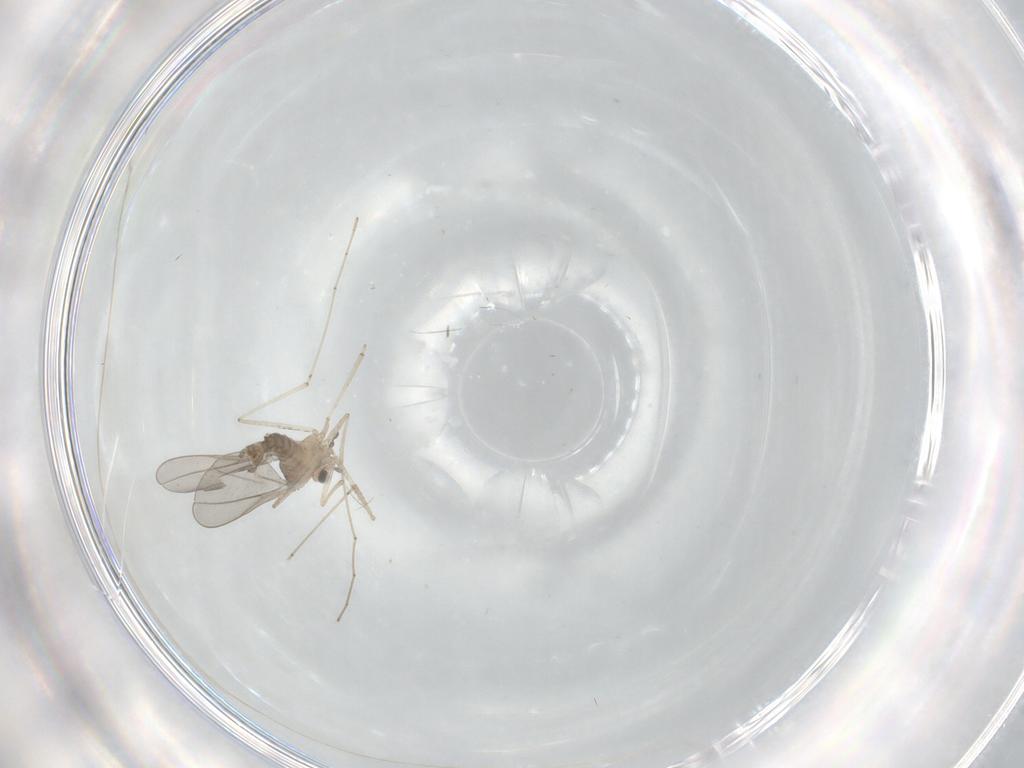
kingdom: Animalia
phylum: Arthropoda
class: Insecta
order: Diptera
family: Cecidomyiidae
